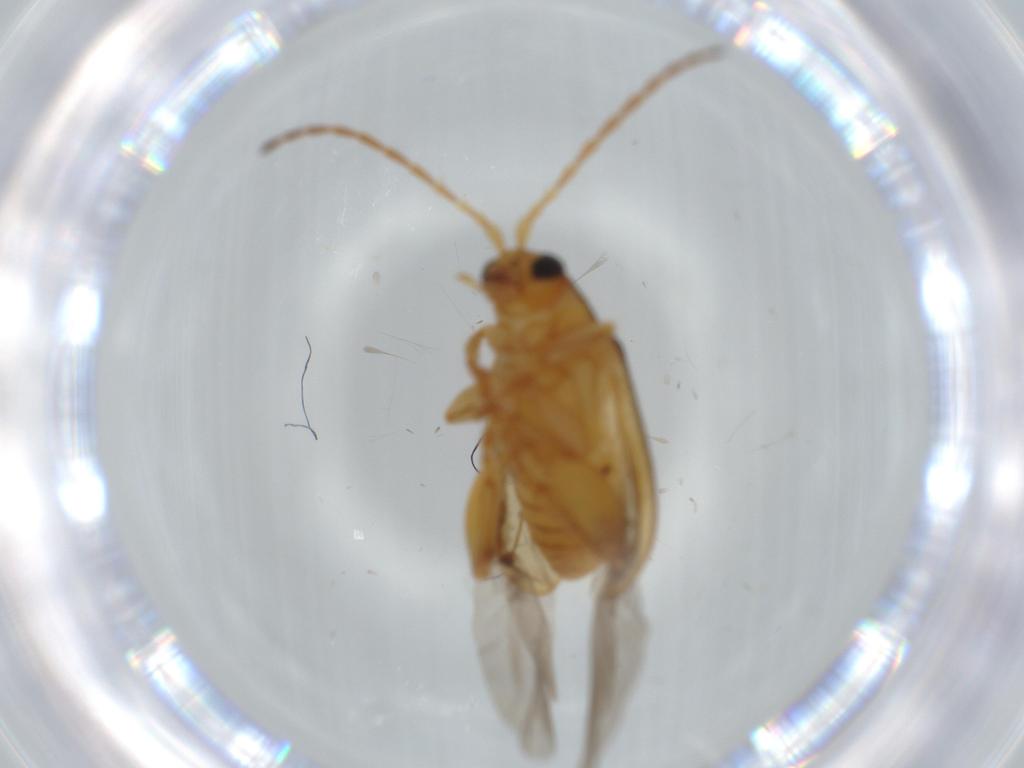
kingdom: Animalia
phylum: Arthropoda
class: Insecta
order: Coleoptera
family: Chrysomelidae
